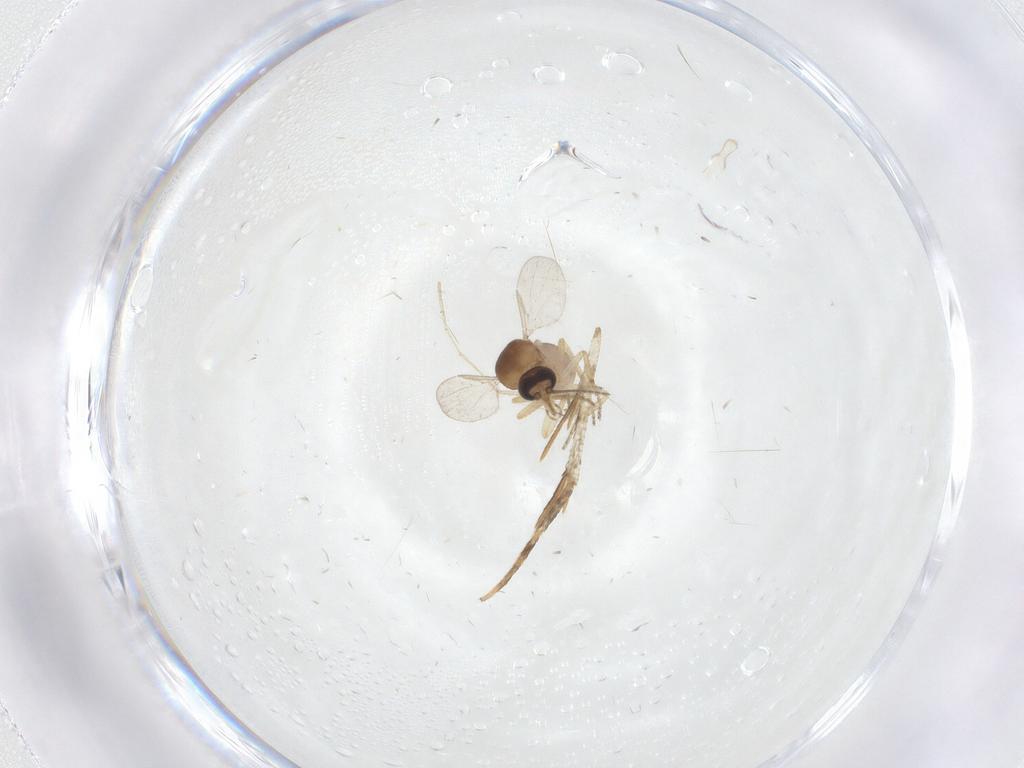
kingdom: Animalia
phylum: Arthropoda
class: Insecta
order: Diptera
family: Ceratopogonidae
